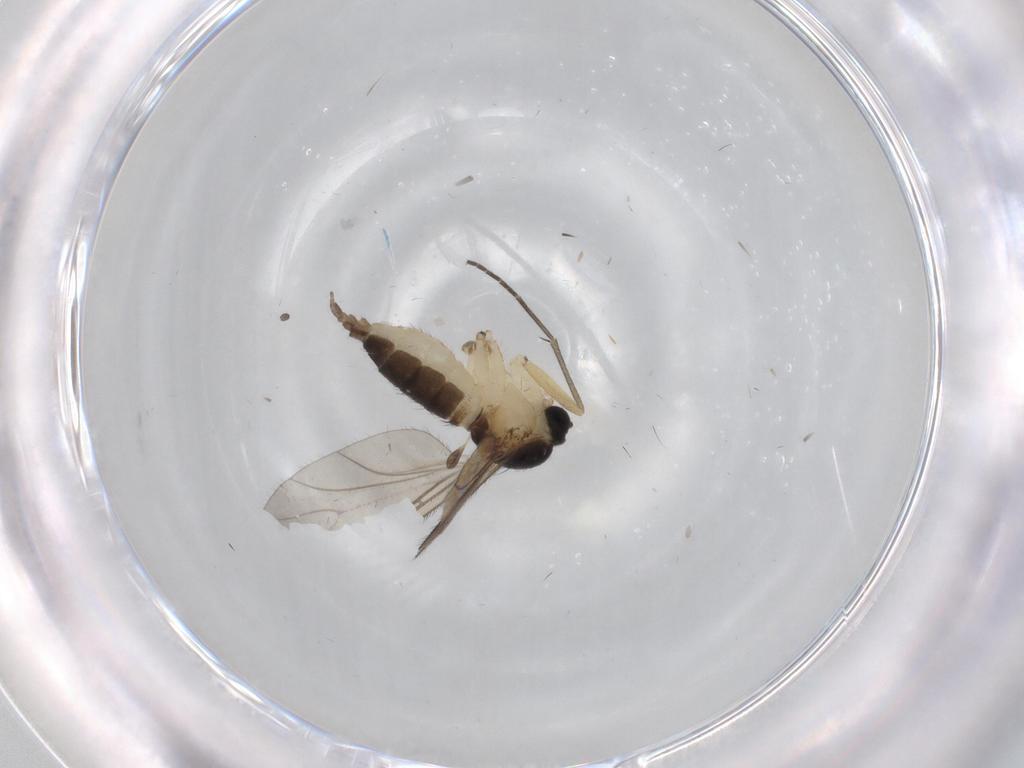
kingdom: Animalia
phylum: Arthropoda
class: Insecta
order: Diptera
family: Sciaridae
